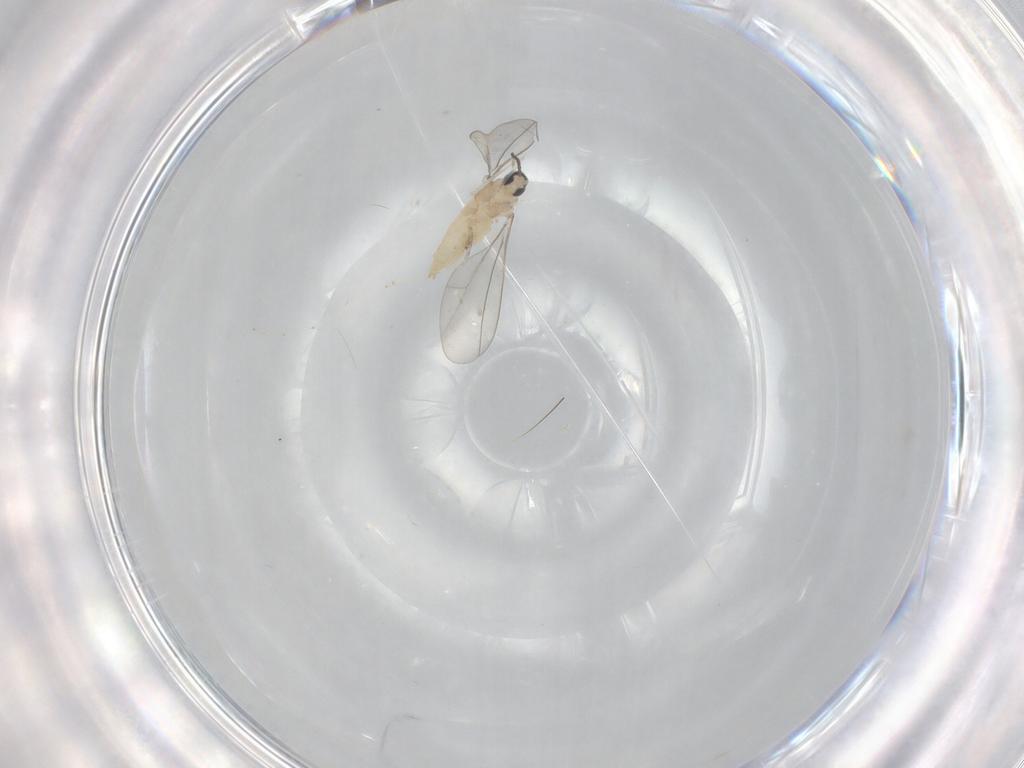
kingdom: Animalia
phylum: Arthropoda
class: Insecta
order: Diptera
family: Cecidomyiidae
